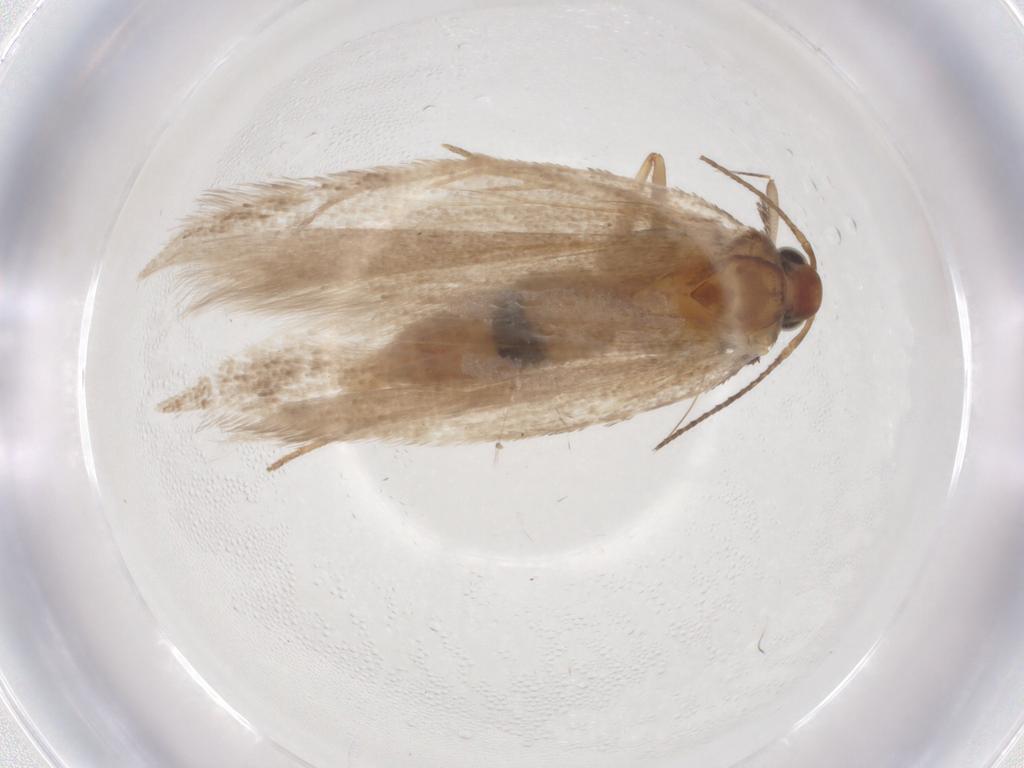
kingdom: Animalia
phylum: Arthropoda
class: Insecta
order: Lepidoptera
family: Gelechiidae
